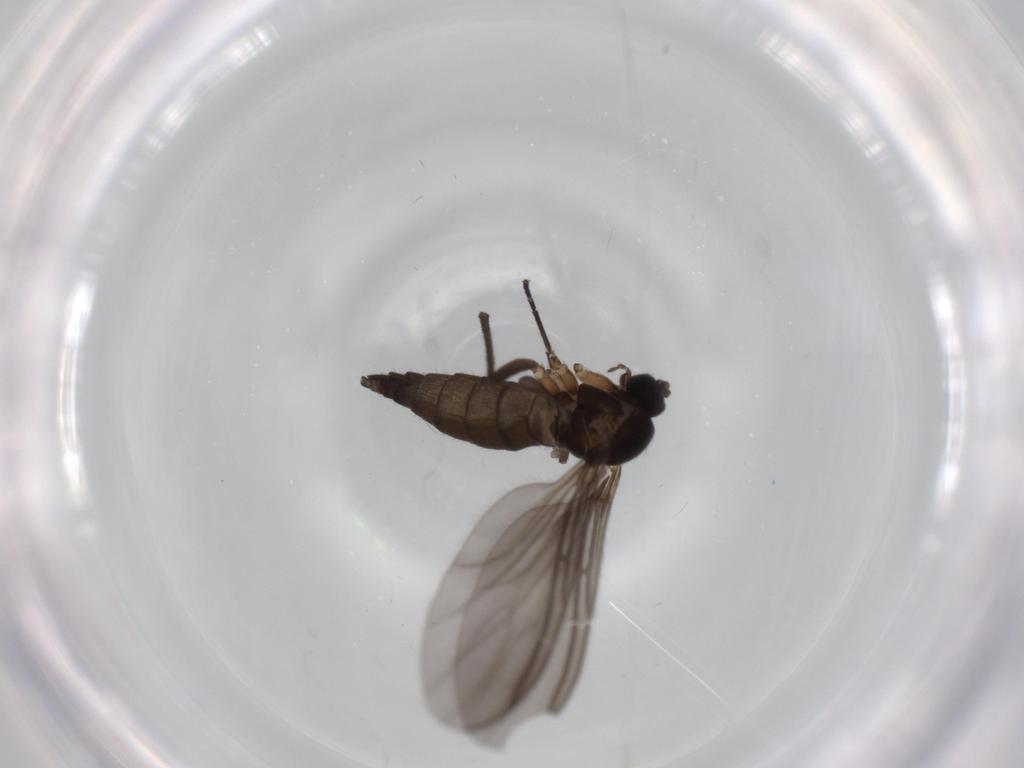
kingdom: Animalia
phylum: Arthropoda
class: Insecta
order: Diptera
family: Sciaridae
